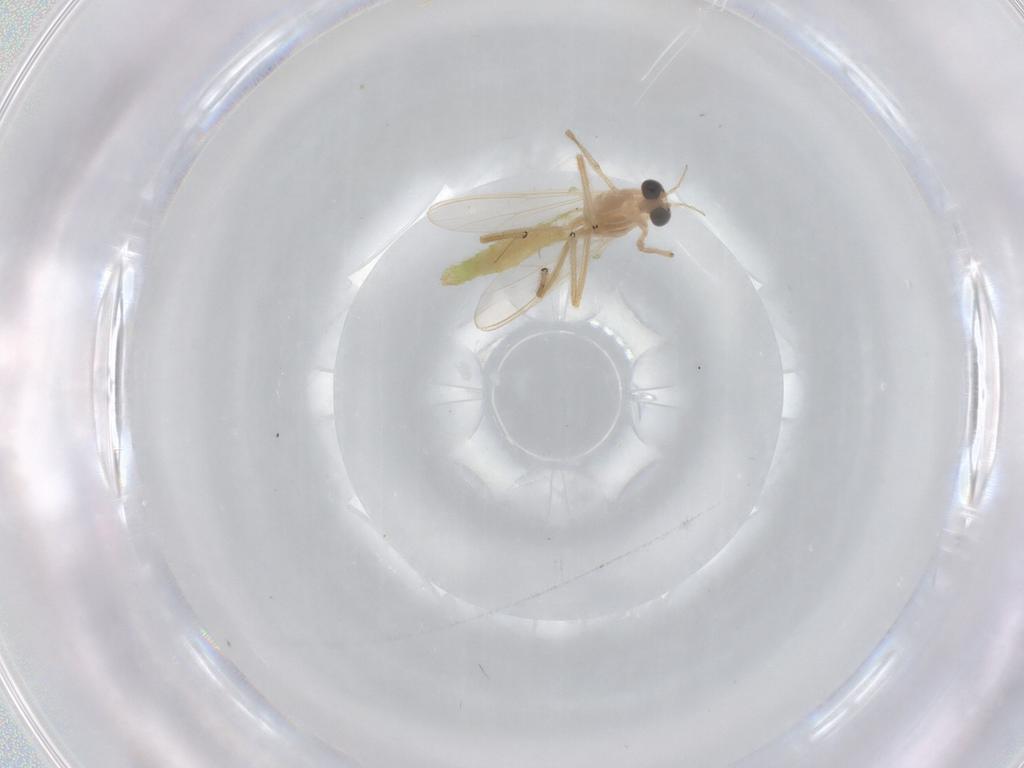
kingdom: Animalia
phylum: Arthropoda
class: Insecta
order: Diptera
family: Chironomidae
